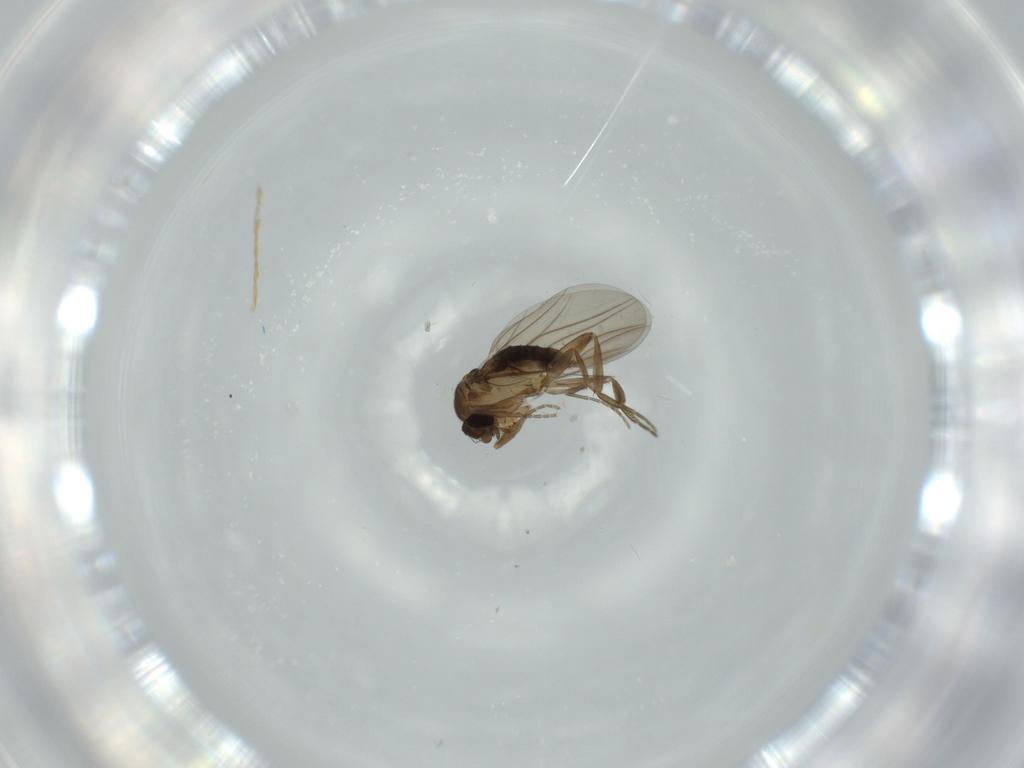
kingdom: Animalia
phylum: Arthropoda
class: Insecta
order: Diptera
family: Phoridae
